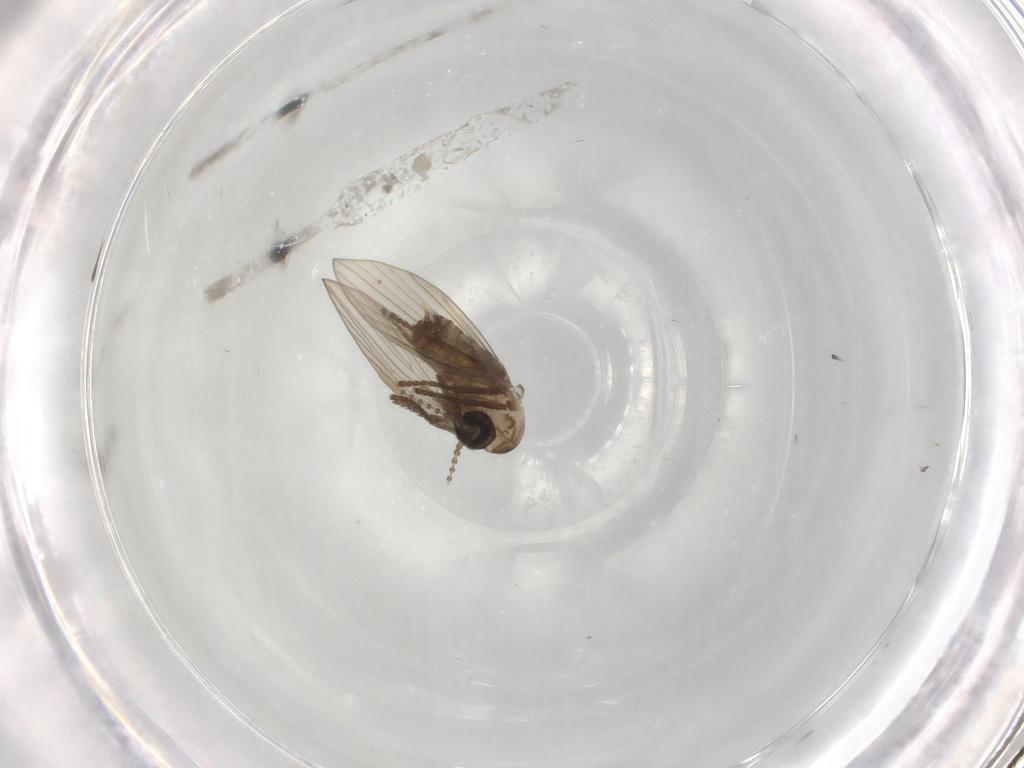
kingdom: Animalia
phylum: Arthropoda
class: Insecta
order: Diptera
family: Psychodidae
